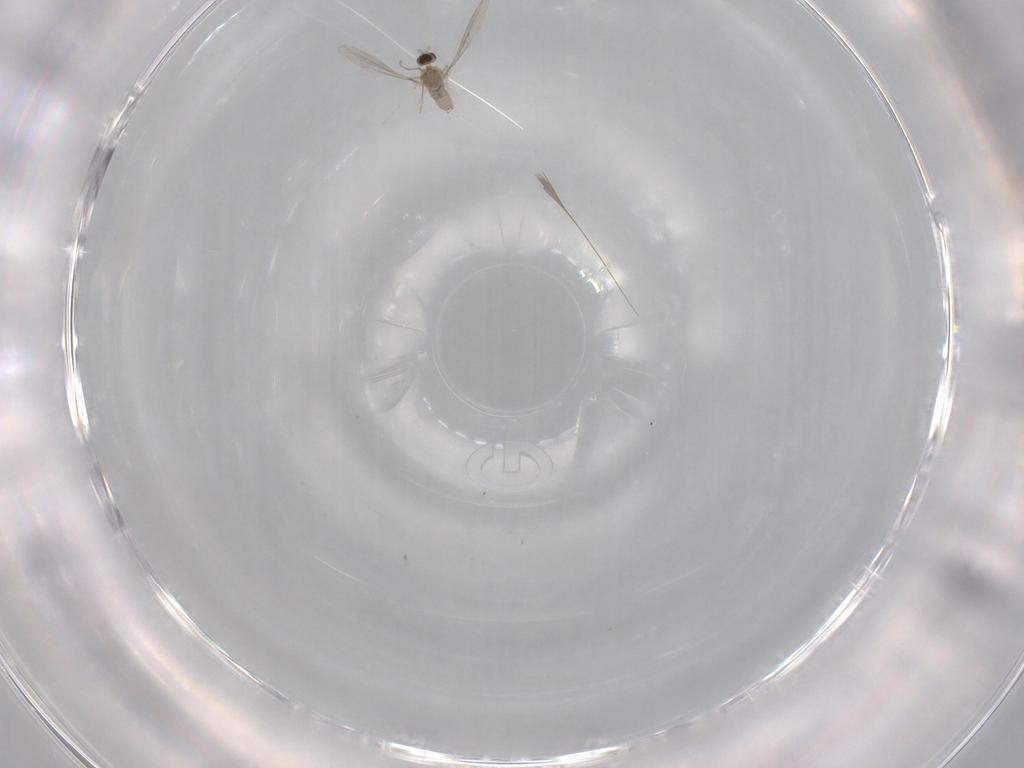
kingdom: Animalia
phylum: Arthropoda
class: Insecta
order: Diptera
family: Cecidomyiidae
